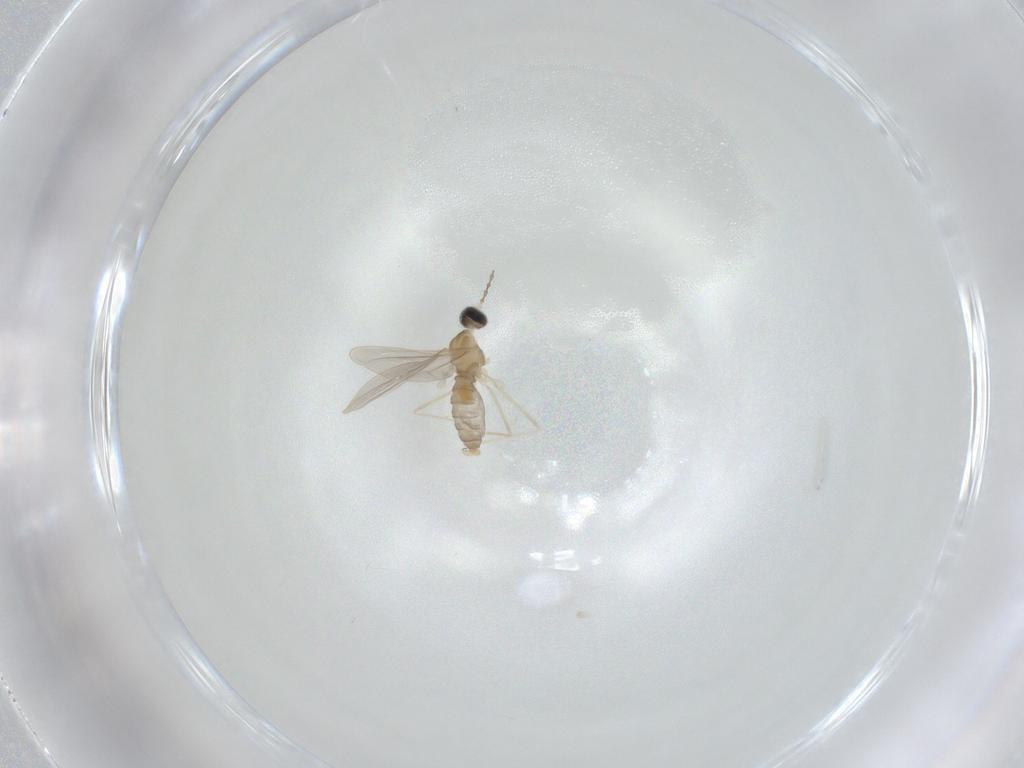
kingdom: Animalia
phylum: Arthropoda
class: Insecta
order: Diptera
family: Cecidomyiidae
